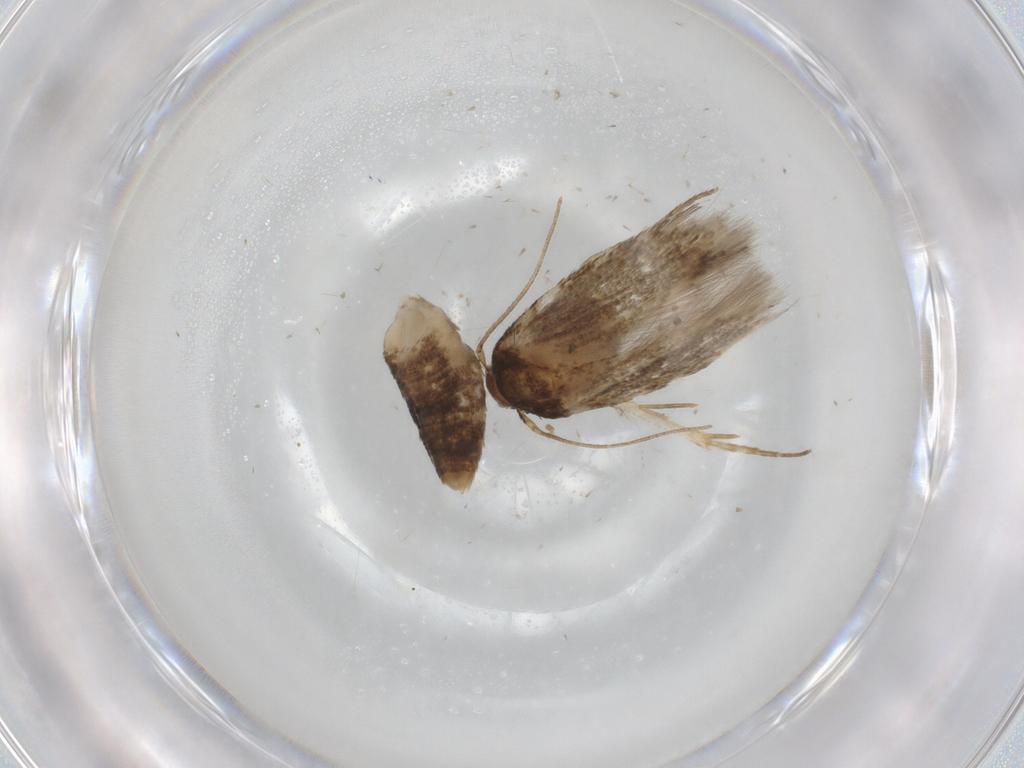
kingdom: Animalia
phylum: Arthropoda
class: Insecta
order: Lepidoptera
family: Cosmopterigidae
